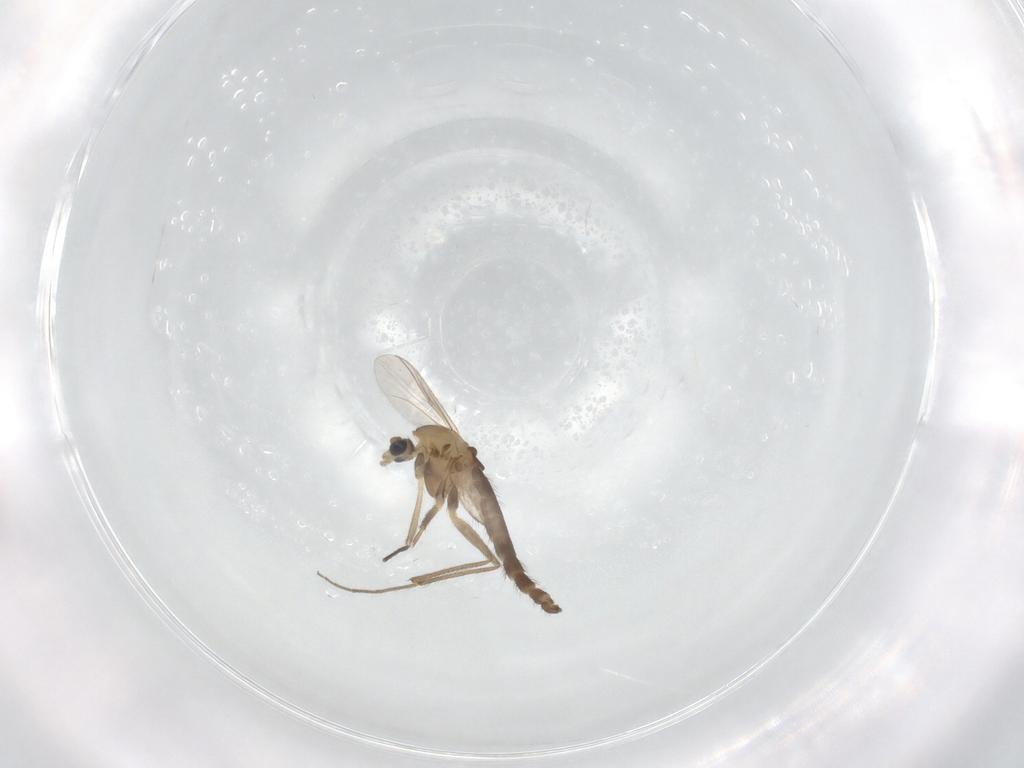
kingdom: Animalia
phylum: Arthropoda
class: Insecta
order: Diptera
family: Chironomidae
